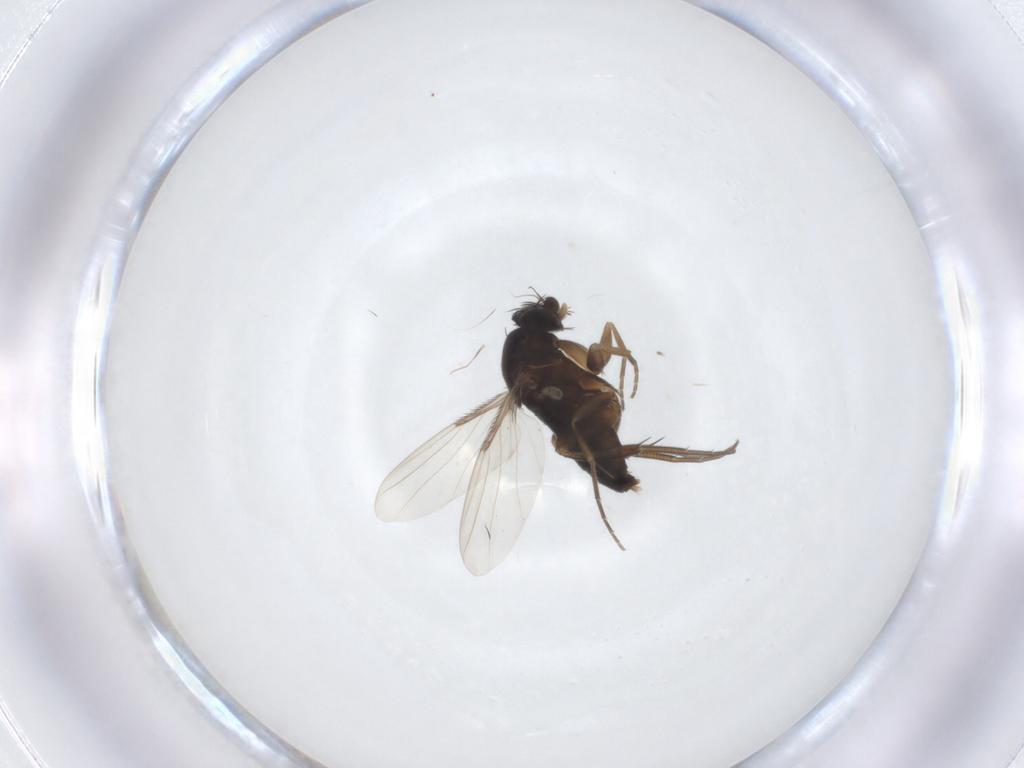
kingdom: Animalia
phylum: Arthropoda
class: Insecta
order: Diptera
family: Phoridae
